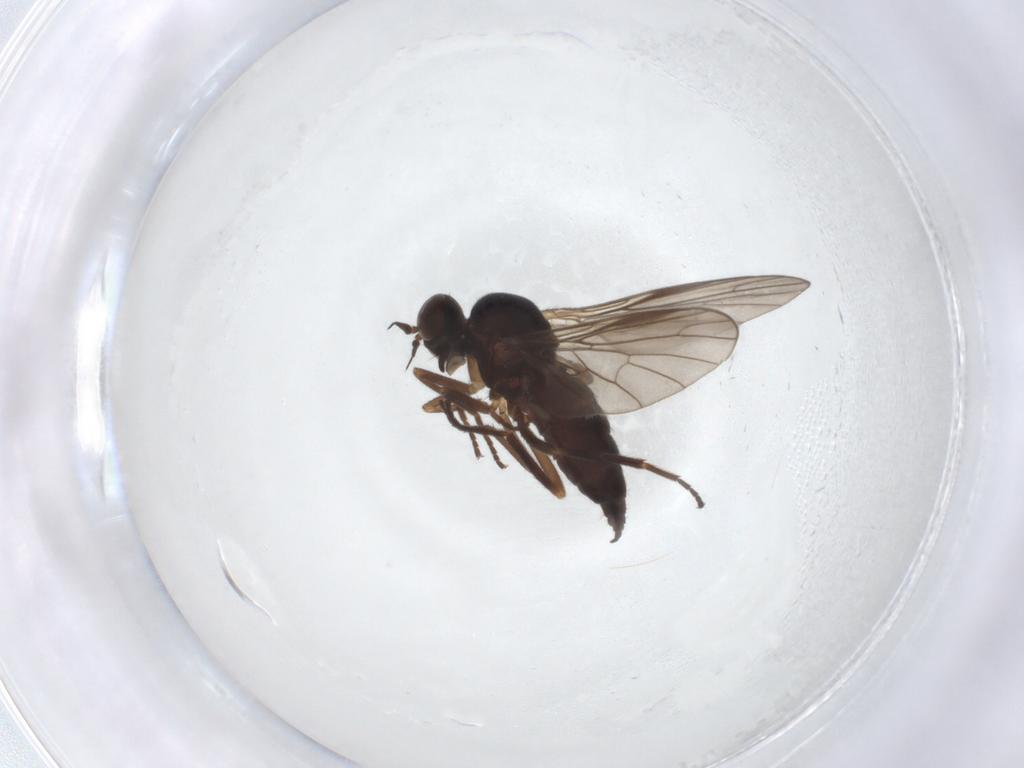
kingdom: Animalia
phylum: Arthropoda
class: Insecta
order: Diptera
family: Empididae
